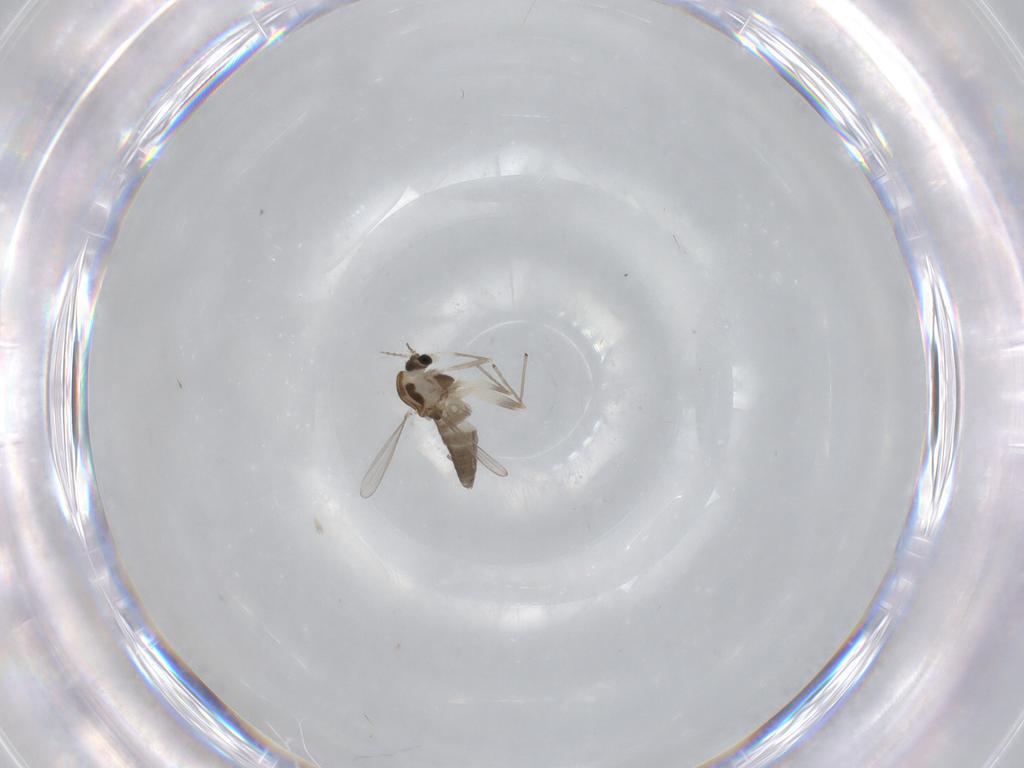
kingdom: Animalia
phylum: Arthropoda
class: Insecta
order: Diptera
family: Chironomidae
